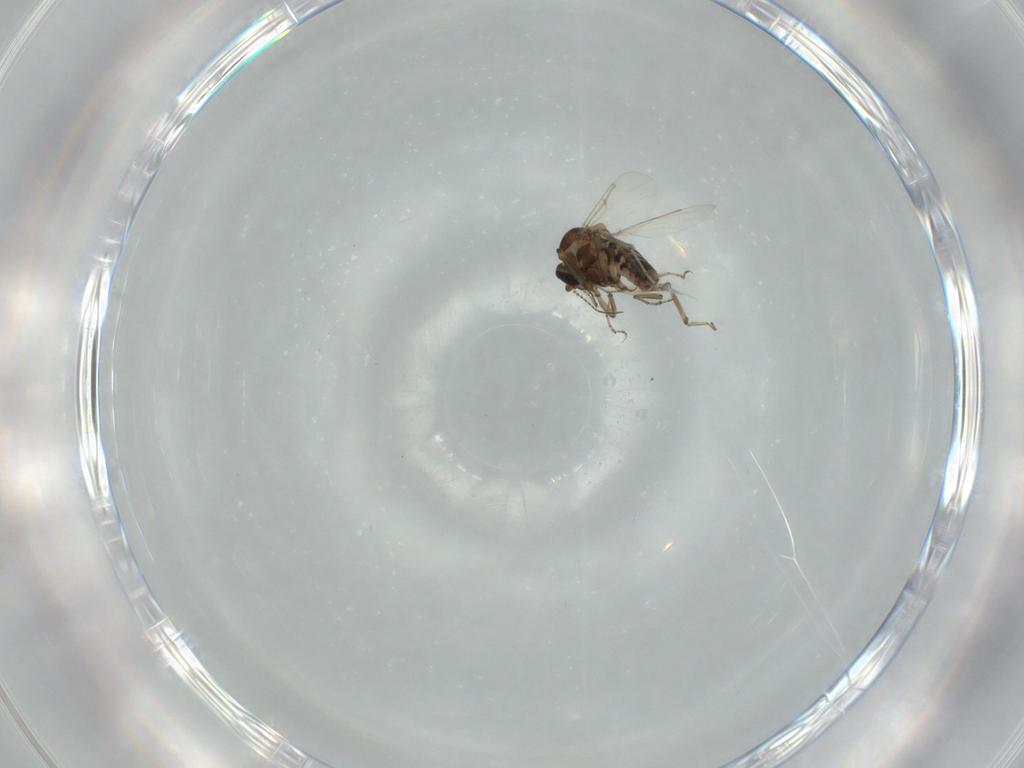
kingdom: Animalia
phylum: Arthropoda
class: Insecta
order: Diptera
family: Ceratopogonidae
